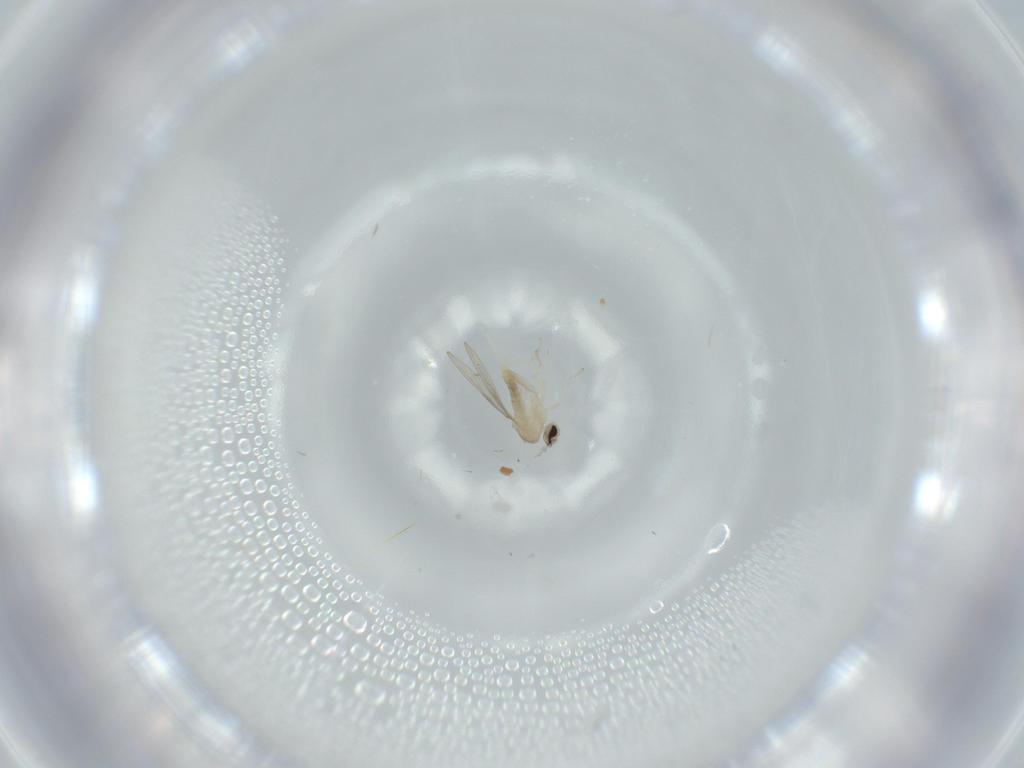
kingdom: Animalia
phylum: Arthropoda
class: Insecta
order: Diptera
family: Cecidomyiidae
